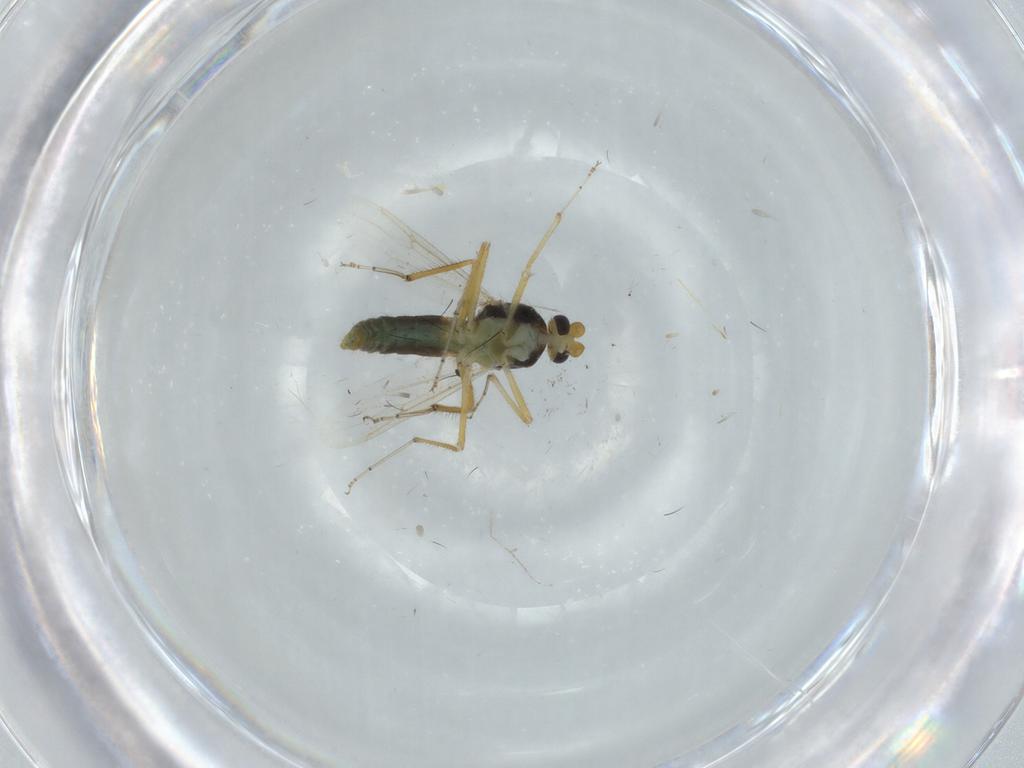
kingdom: Animalia
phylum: Arthropoda
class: Insecta
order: Diptera
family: Ceratopogonidae
